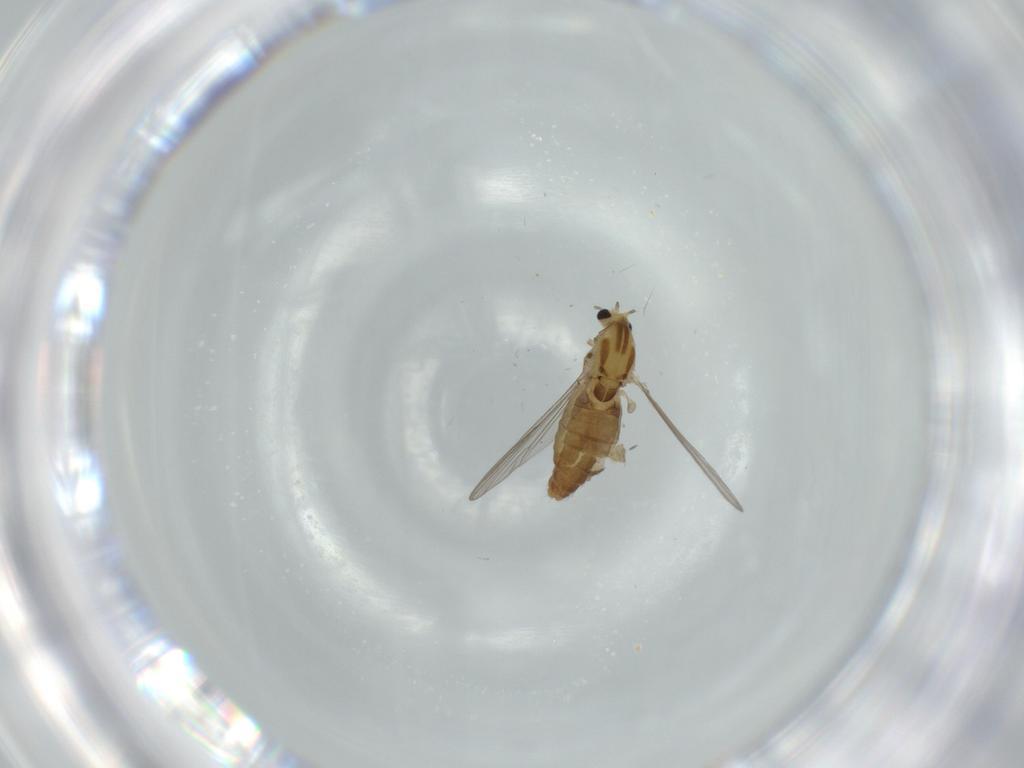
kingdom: Animalia
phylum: Arthropoda
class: Insecta
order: Diptera
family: Chironomidae
